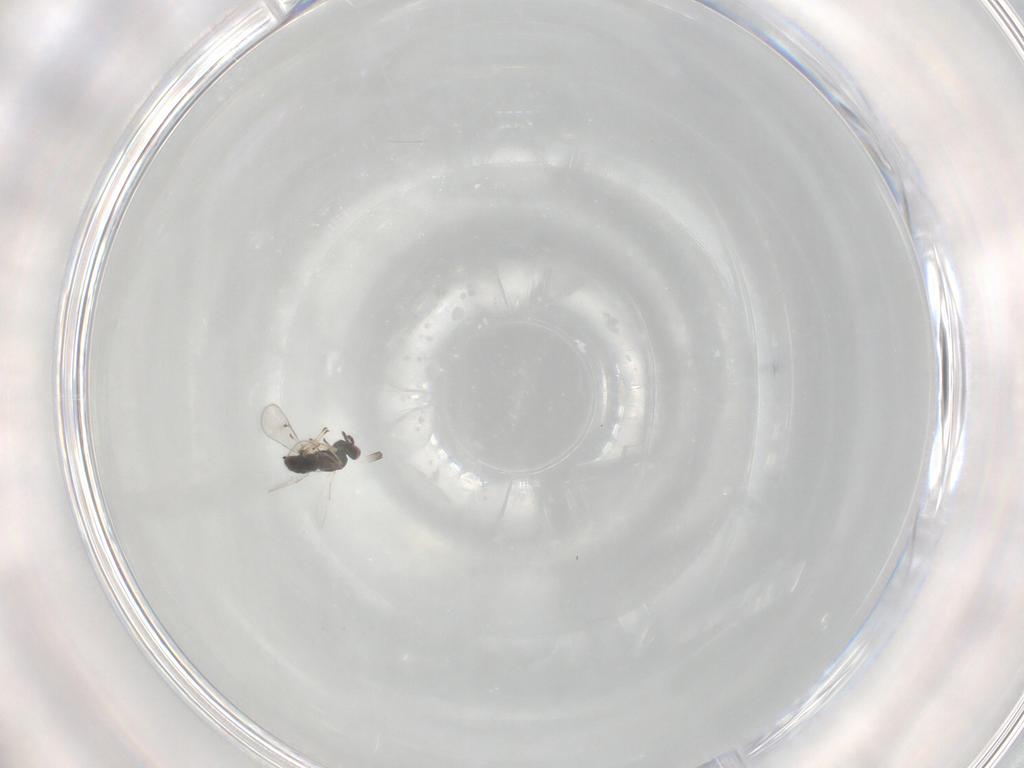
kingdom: Animalia
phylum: Arthropoda
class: Insecta
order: Hymenoptera
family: Eulophidae
